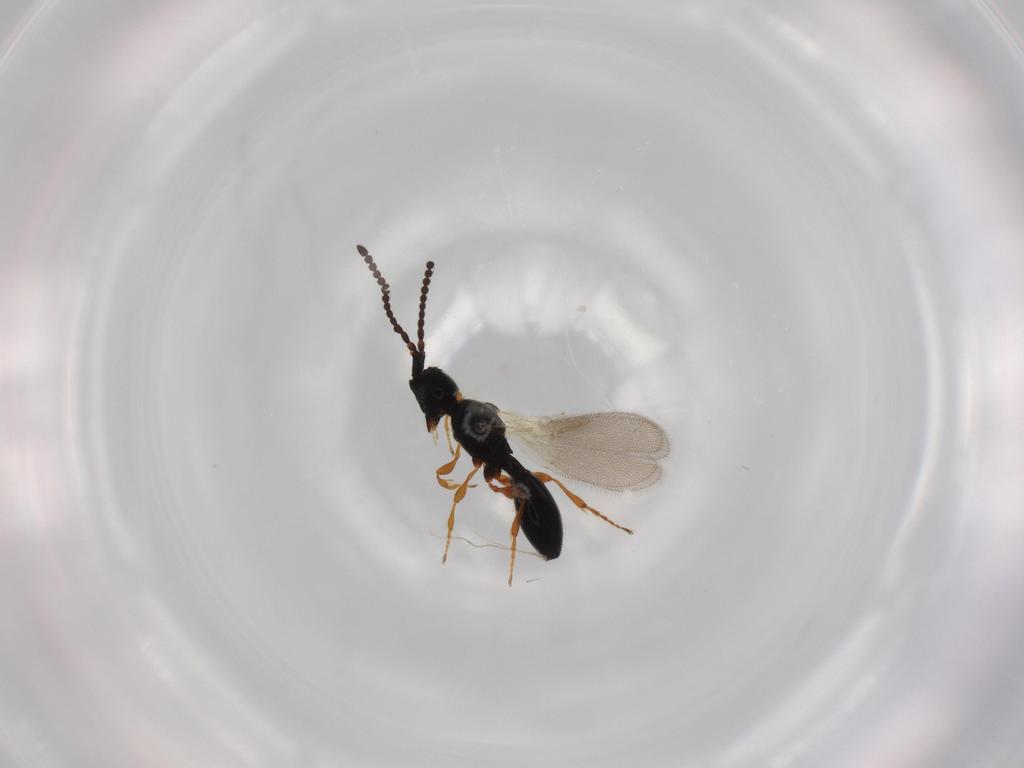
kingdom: Animalia
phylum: Arthropoda
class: Insecta
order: Hymenoptera
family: Diapriidae
